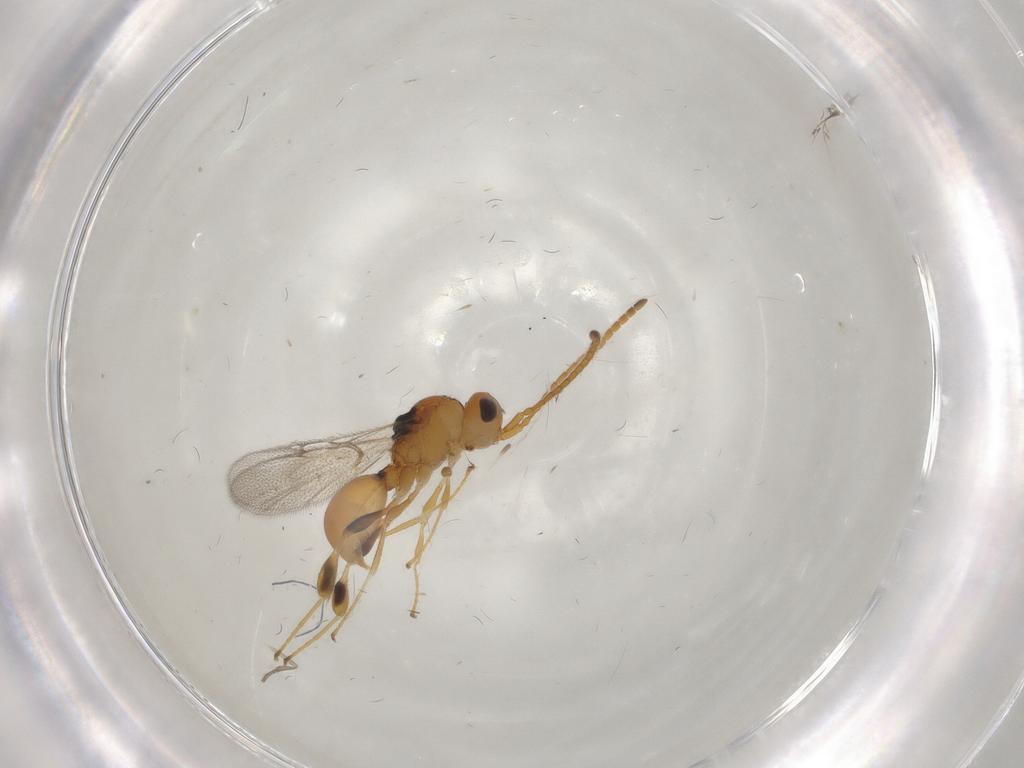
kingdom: Animalia
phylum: Arthropoda
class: Insecta
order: Hymenoptera
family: Diapriidae
